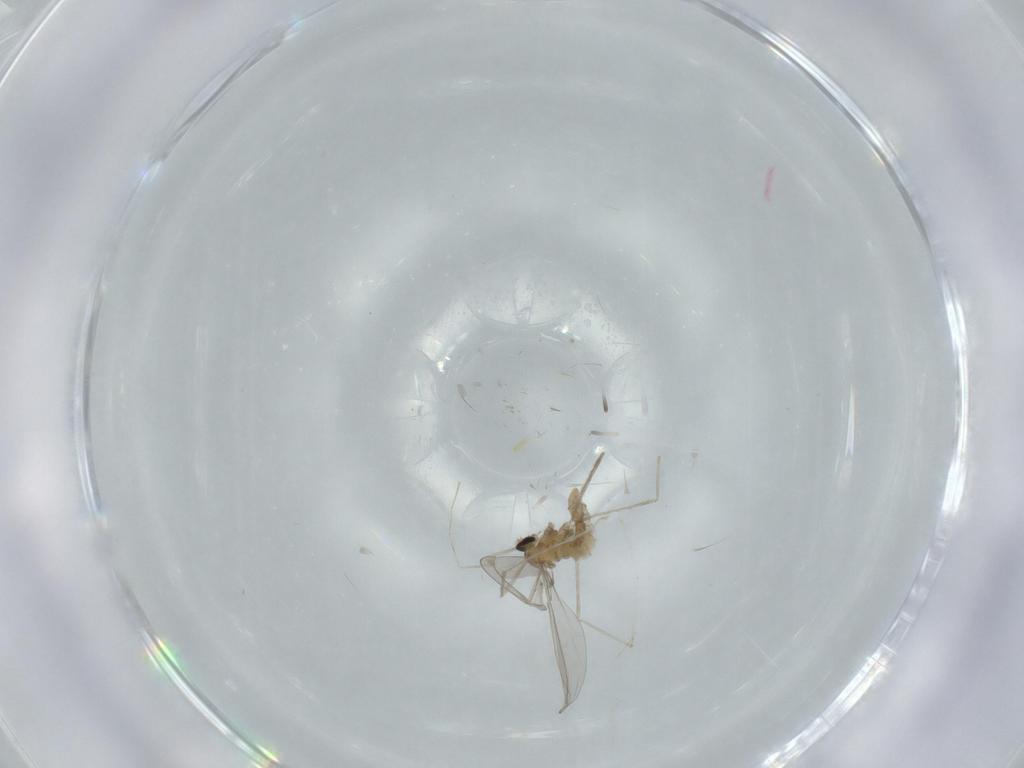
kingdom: Animalia
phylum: Arthropoda
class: Insecta
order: Diptera
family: Cecidomyiidae
